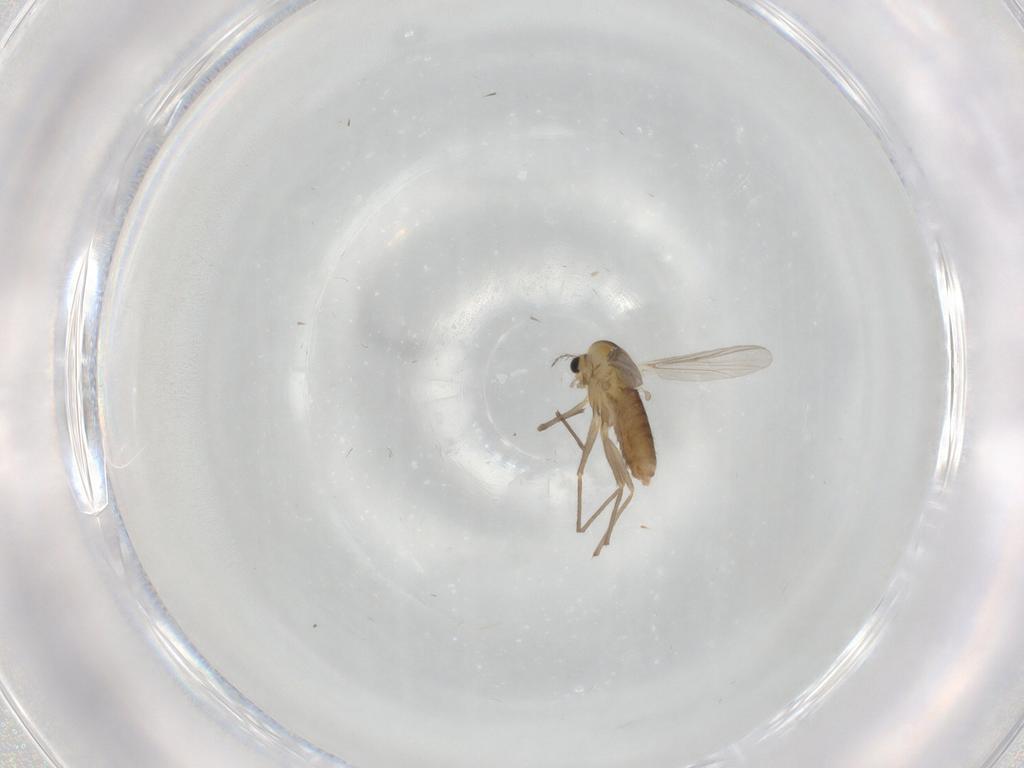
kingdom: Animalia
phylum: Arthropoda
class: Insecta
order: Diptera
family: Chironomidae
